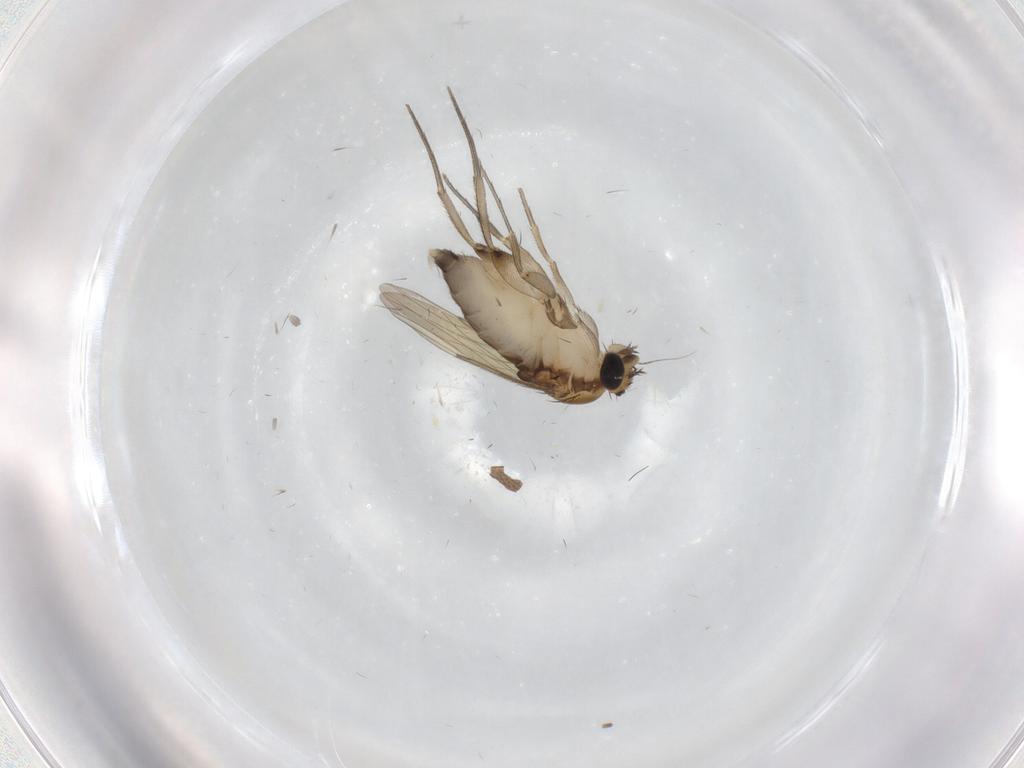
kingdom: Animalia
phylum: Arthropoda
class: Insecta
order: Diptera
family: Phoridae
